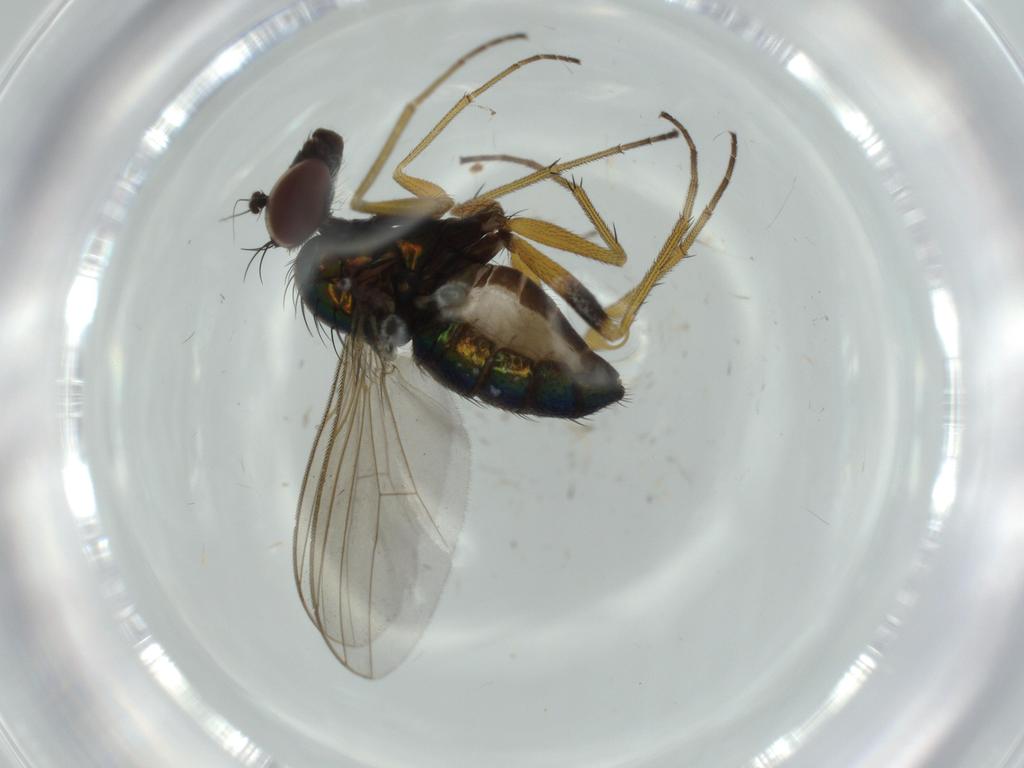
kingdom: Animalia
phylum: Arthropoda
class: Insecta
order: Diptera
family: Dolichopodidae
